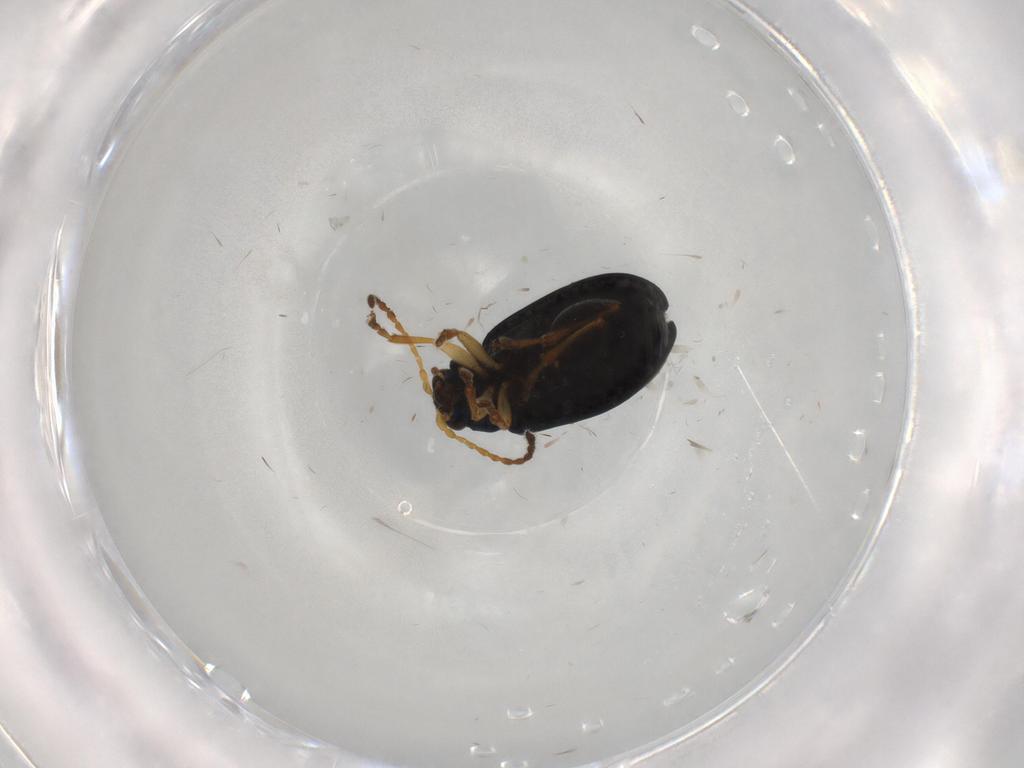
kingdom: Animalia
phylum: Arthropoda
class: Insecta
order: Coleoptera
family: Chrysomelidae
